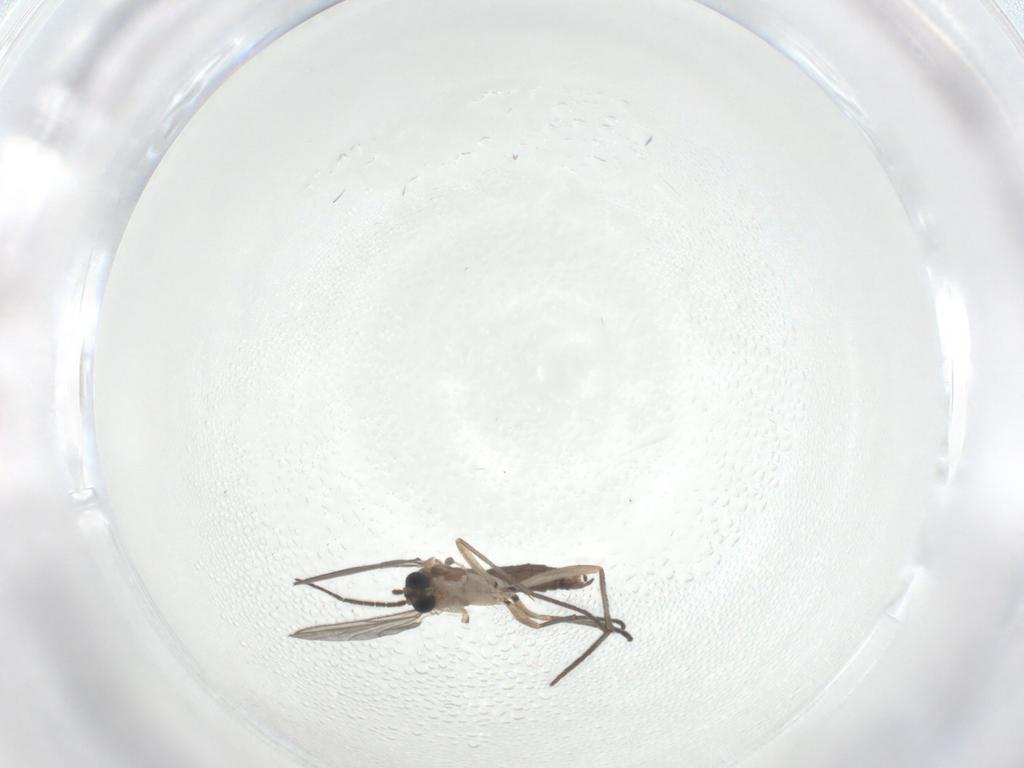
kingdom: Animalia
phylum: Arthropoda
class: Insecta
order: Diptera
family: Sciaridae
